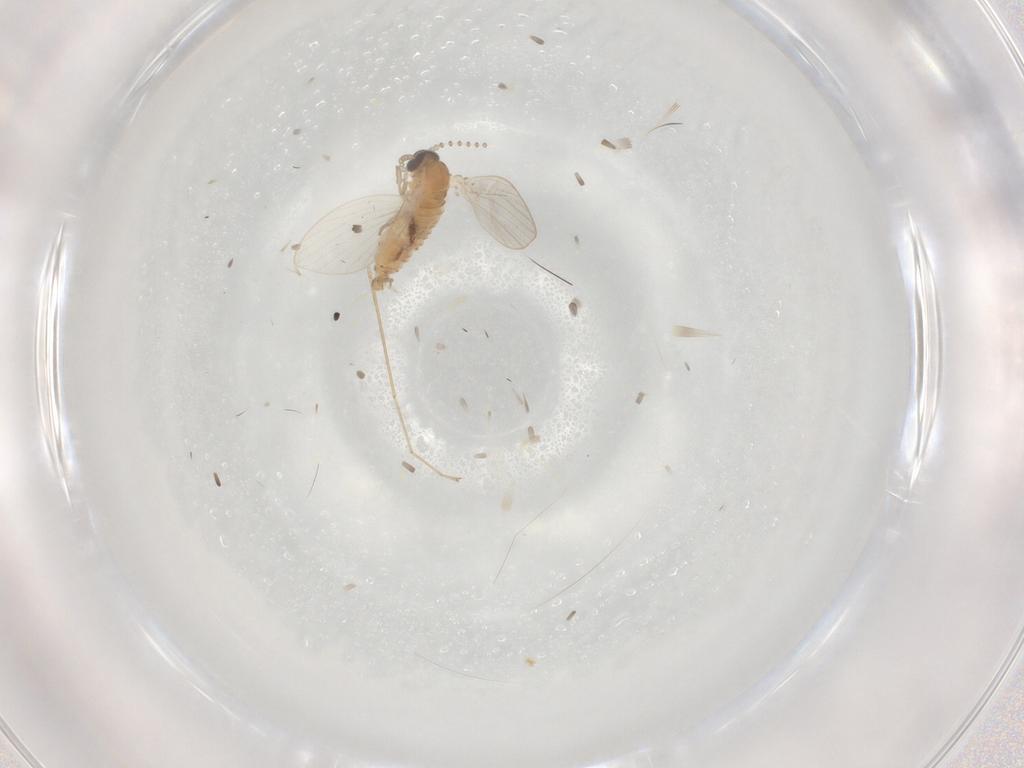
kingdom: Animalia
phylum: Arthropoda
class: Insecta
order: Diptera
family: Psychodidae
